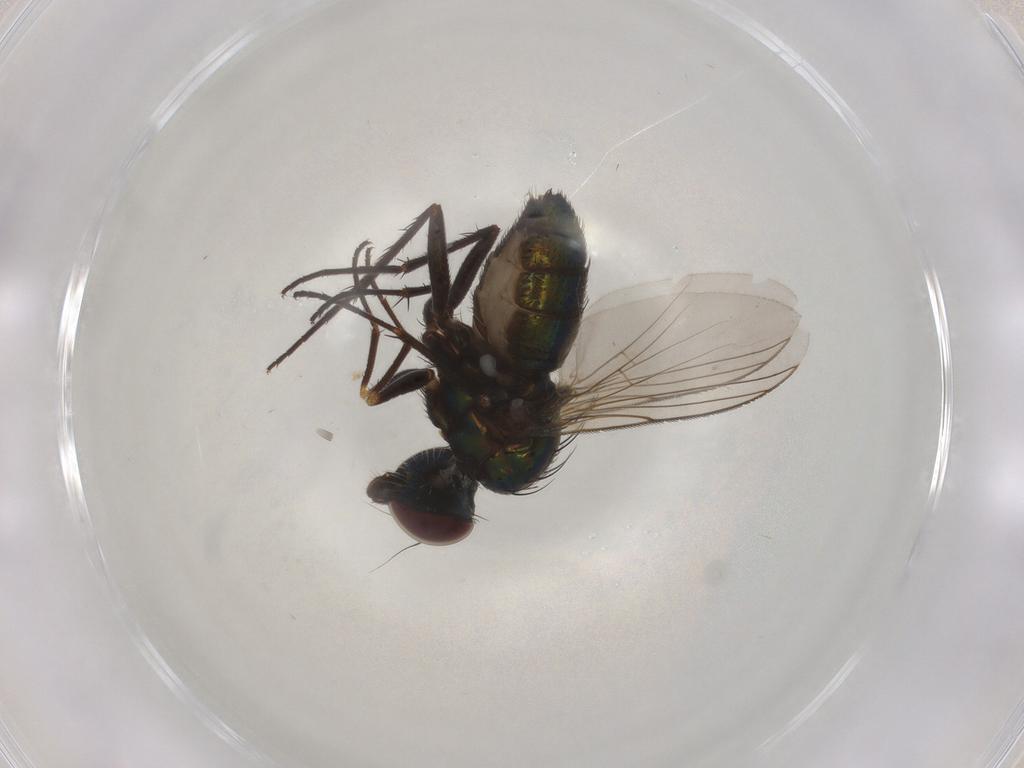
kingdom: Animalia
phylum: Arthropoda
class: Insecta
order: Diptera
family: Dolichopodidae
